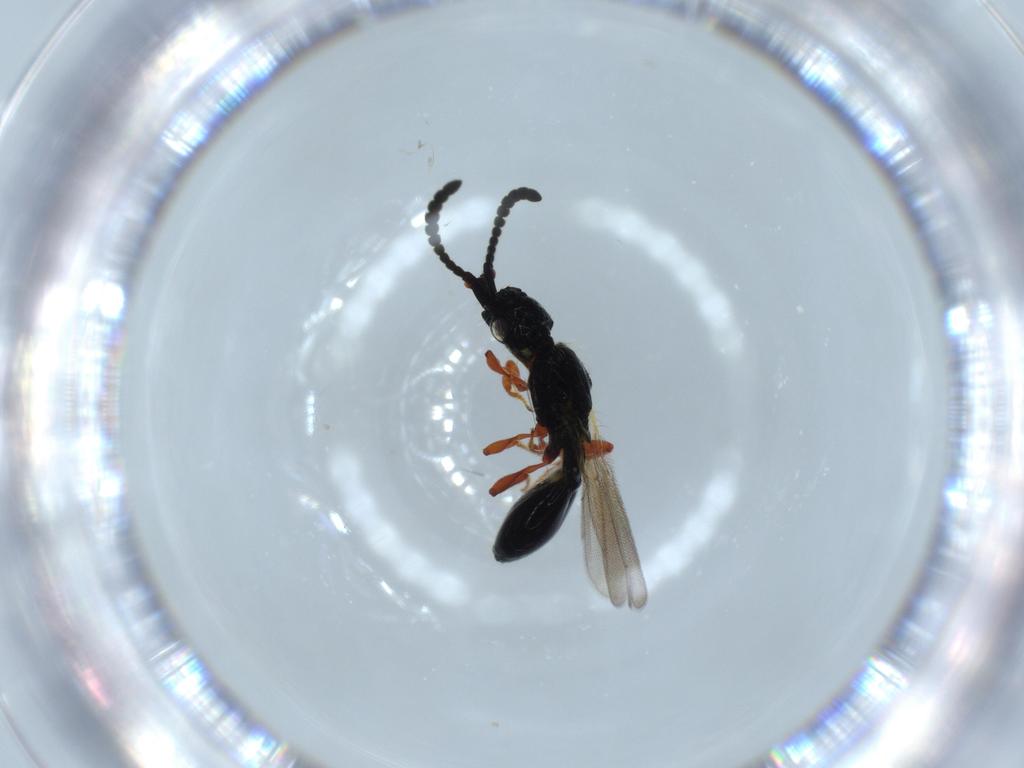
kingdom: Animalia
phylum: Arthropoda
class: Insecta
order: Hymenoptera
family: Diapriidae
